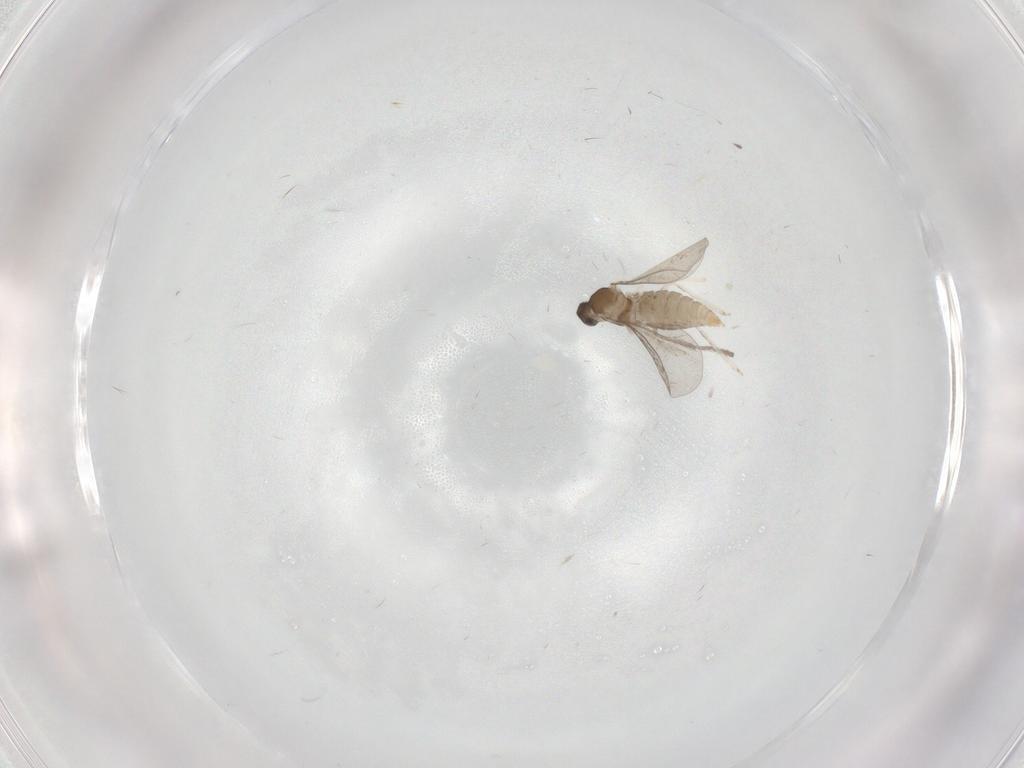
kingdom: Animalia
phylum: Arthropoda
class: Insecta
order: Diptera
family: Cecidomyiidae
